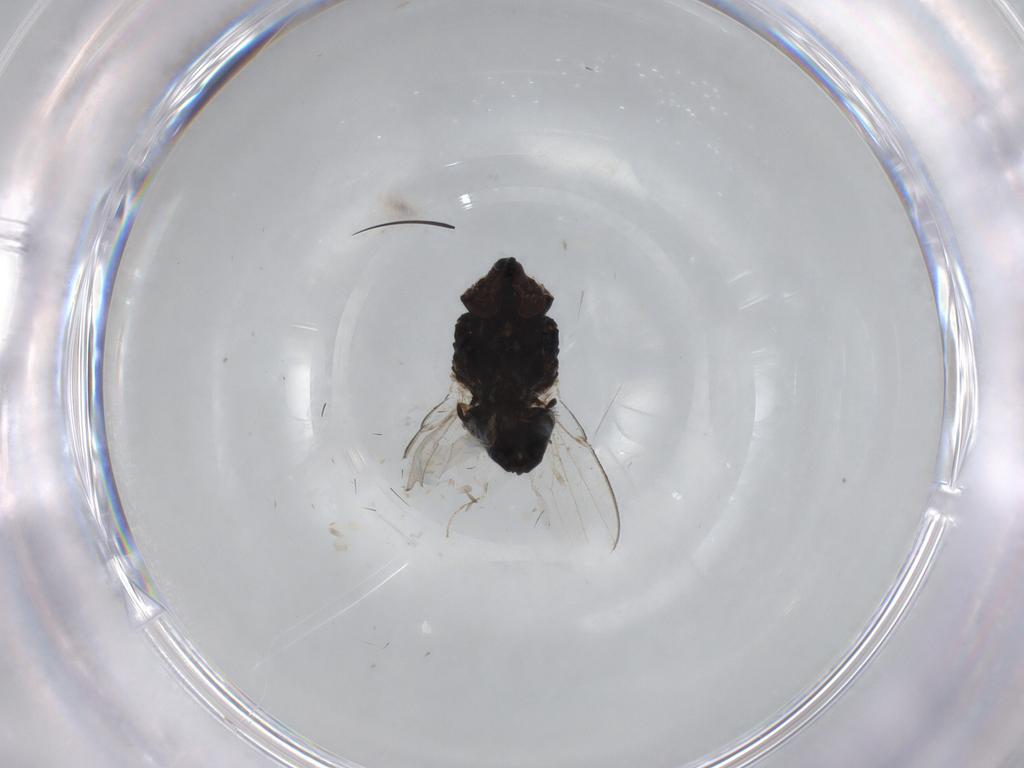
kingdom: Animalia
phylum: Arthropoda
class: Insecta
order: Diptera
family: Milichiidae
